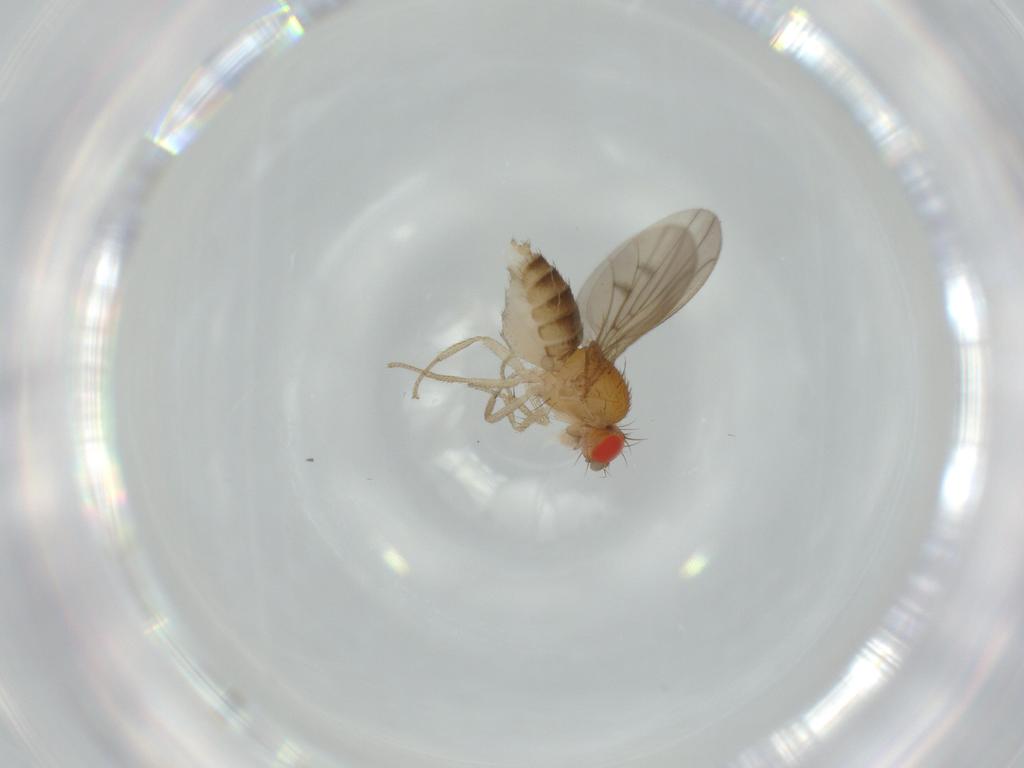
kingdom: Animalia
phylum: Arthropoda
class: Insecta
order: Diptera
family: Drosophilidae
